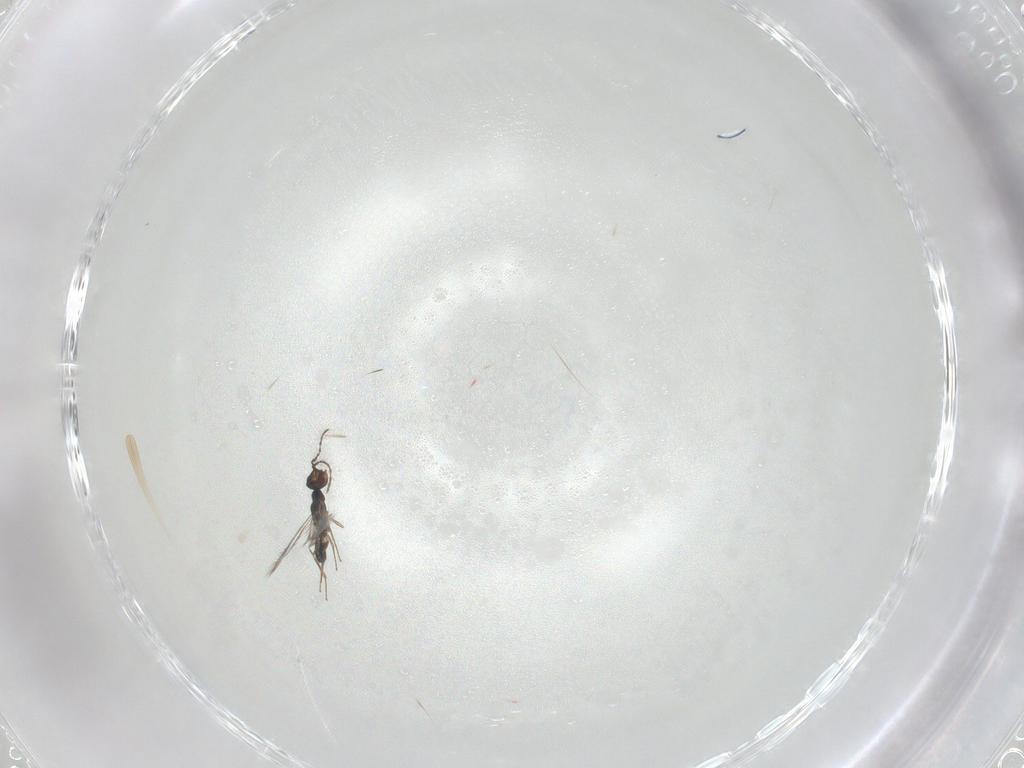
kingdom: Animalia
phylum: Arthropoda
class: Insecta
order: Hymenoptera
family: Pteromalidae
